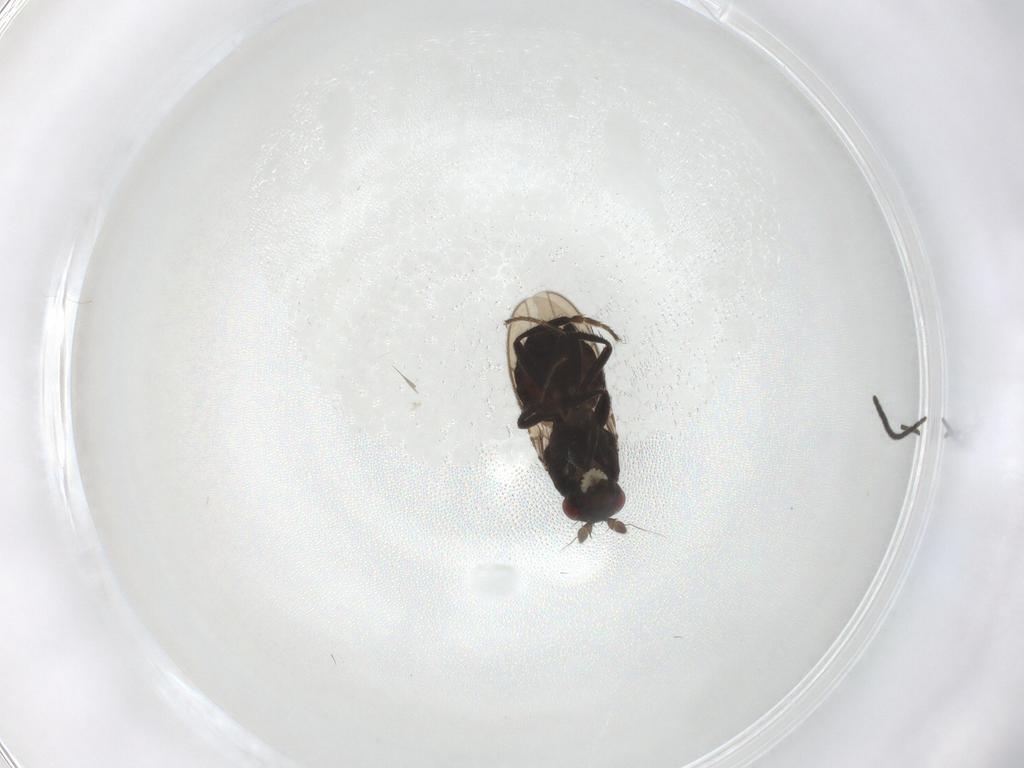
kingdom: Animalia
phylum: Arthropoda
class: Insecta
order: Diptera
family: Sphaeroceridae
